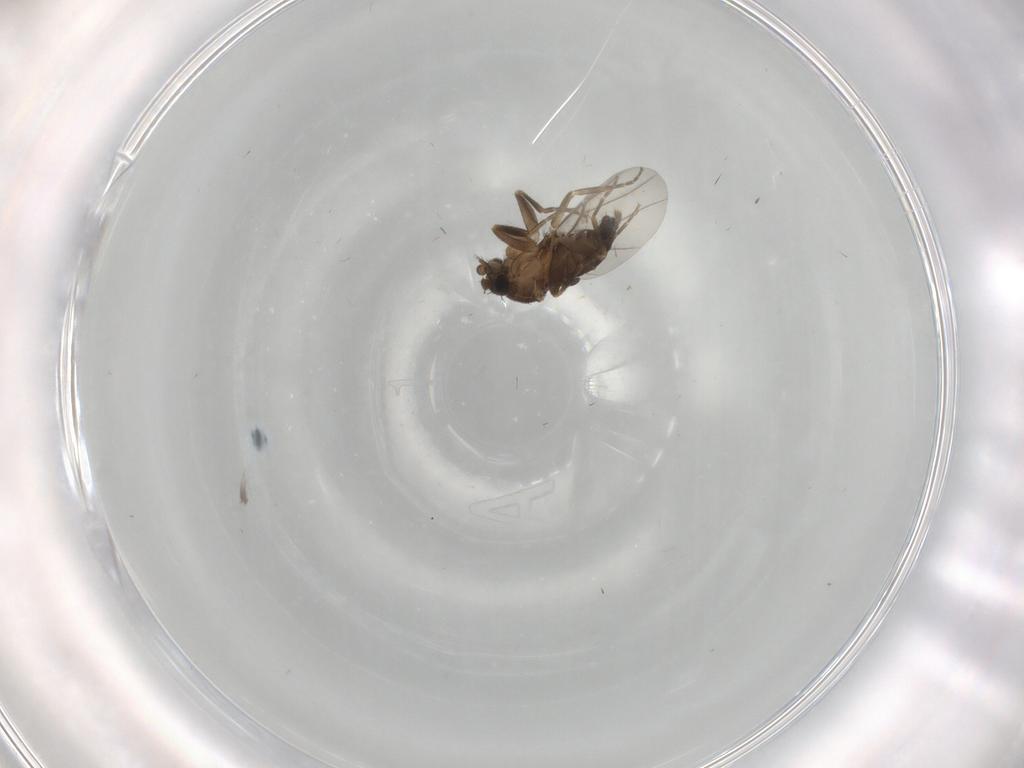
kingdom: Animalia
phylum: Arthropoda
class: Insecta
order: Diptera
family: Phoridae
